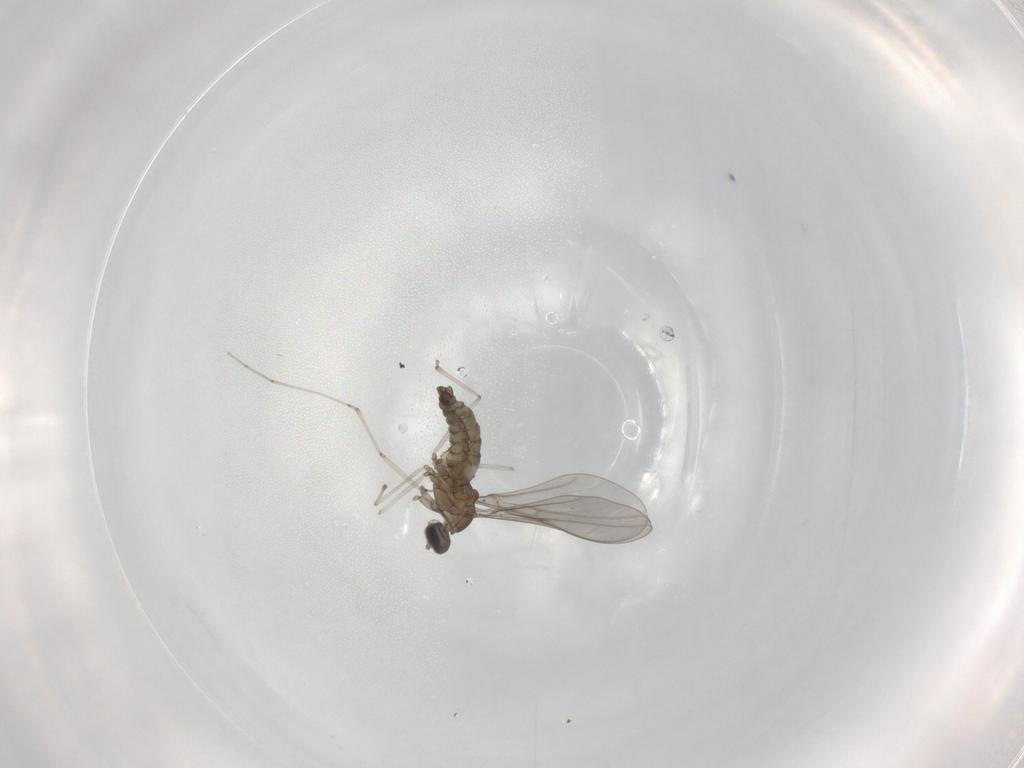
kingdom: Animalia
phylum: Arthropoda
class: Insecta
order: Diptera
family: Cecidomyiidae
